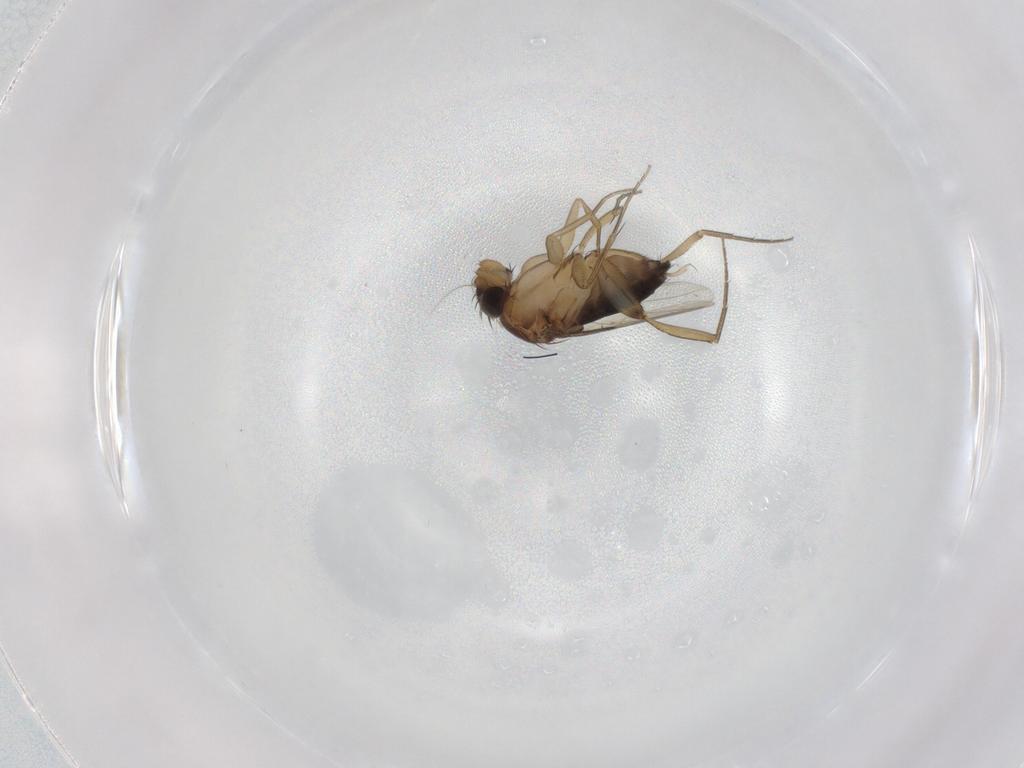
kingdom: Animalia
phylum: Arthropoda
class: Insecta
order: Diptera
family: Phoridae
